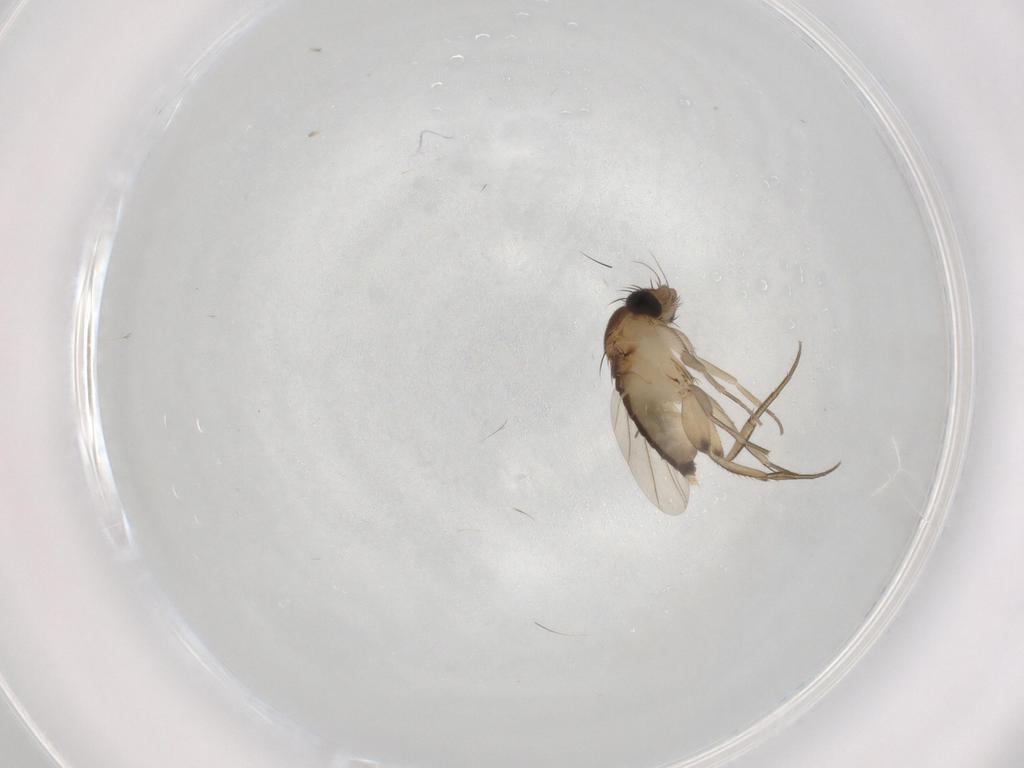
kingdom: Animalia
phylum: Arthropoda
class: Insecta
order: Diptera
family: Phoridae
